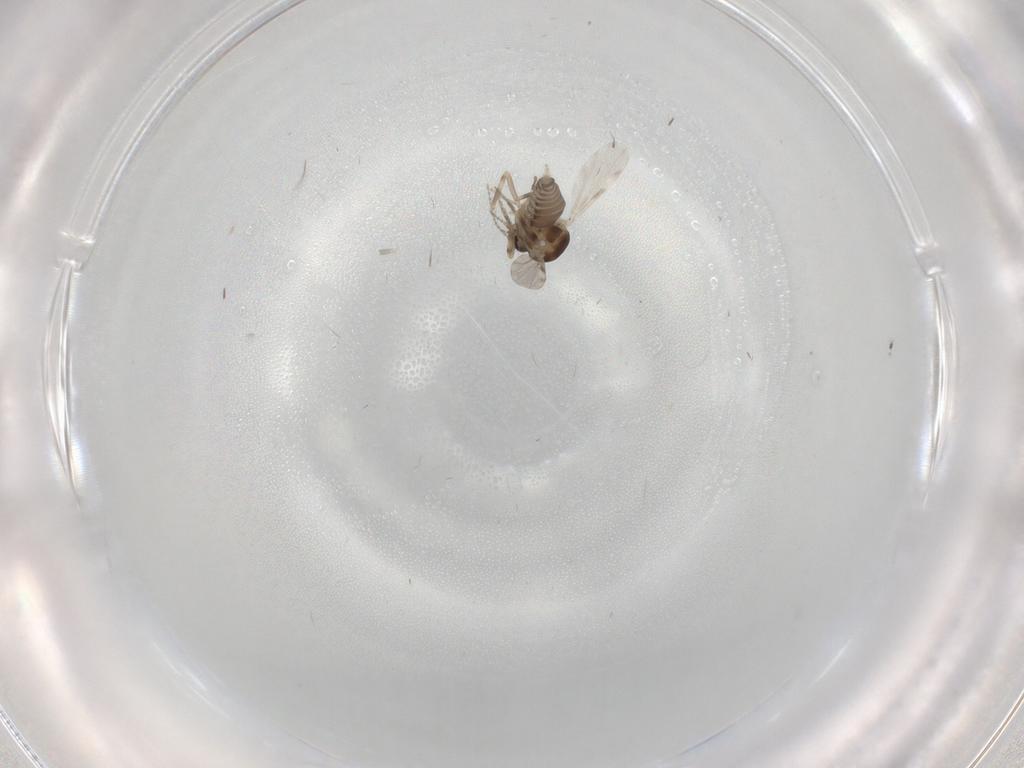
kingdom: Animalia
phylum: Arthropoda
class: Insecta
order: Diptera
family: Ceratopogonidae
